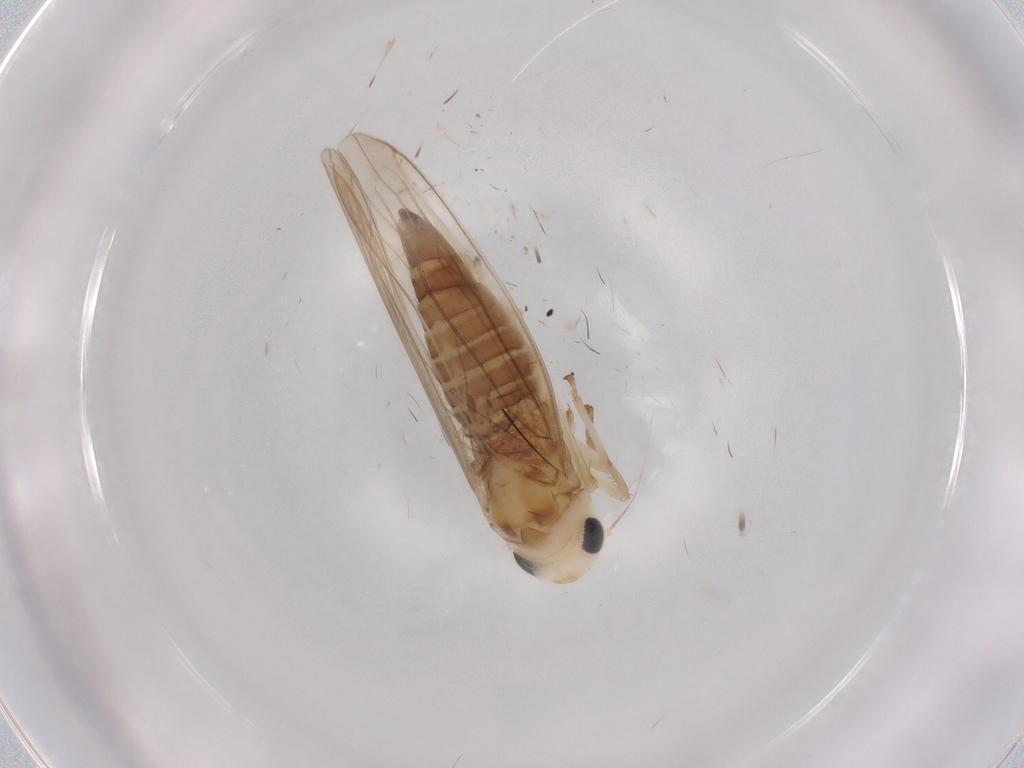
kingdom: Animalia
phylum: Arthropoda
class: Insecta
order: Hemiptera
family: Cicadellidae
